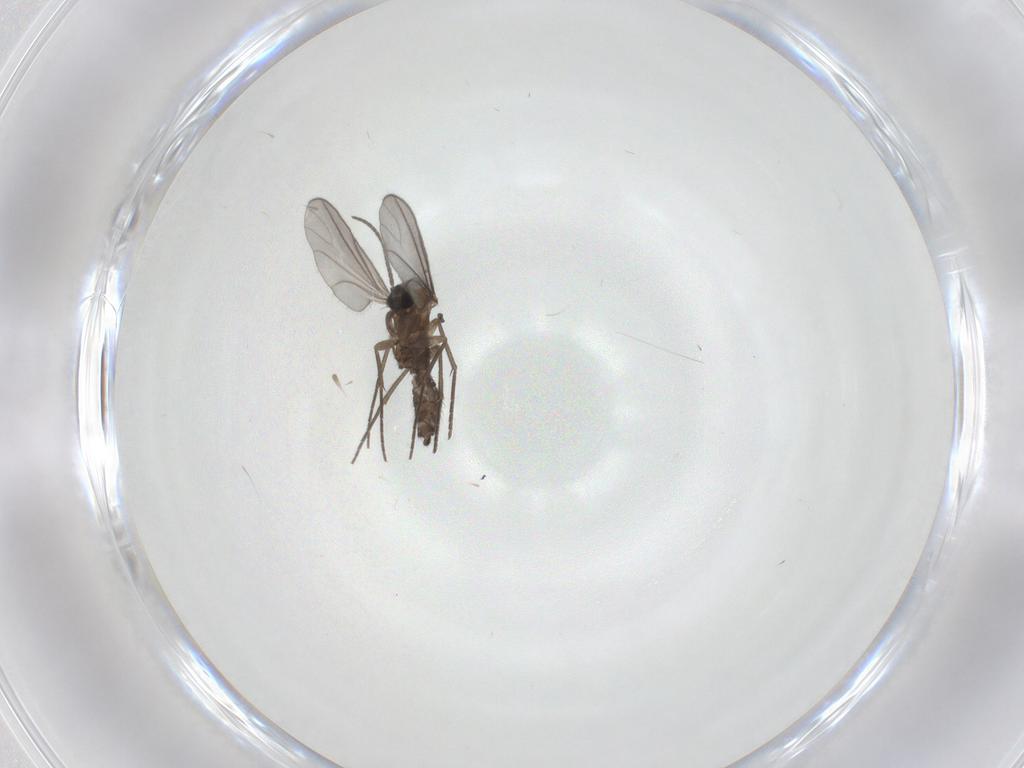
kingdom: Animalia
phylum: Arthropoda
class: Insecta
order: Diptera
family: Sciaridae
